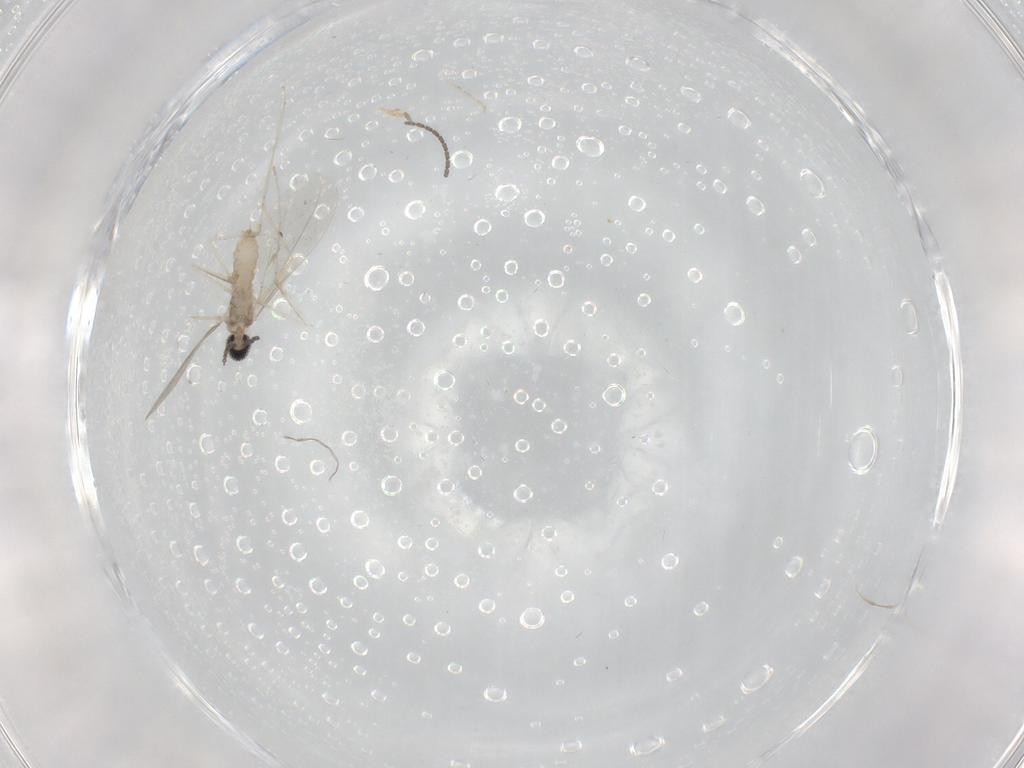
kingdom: Animalia
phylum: Arthropoda
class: Insecta
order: Diptera
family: Cecidomyiidae
